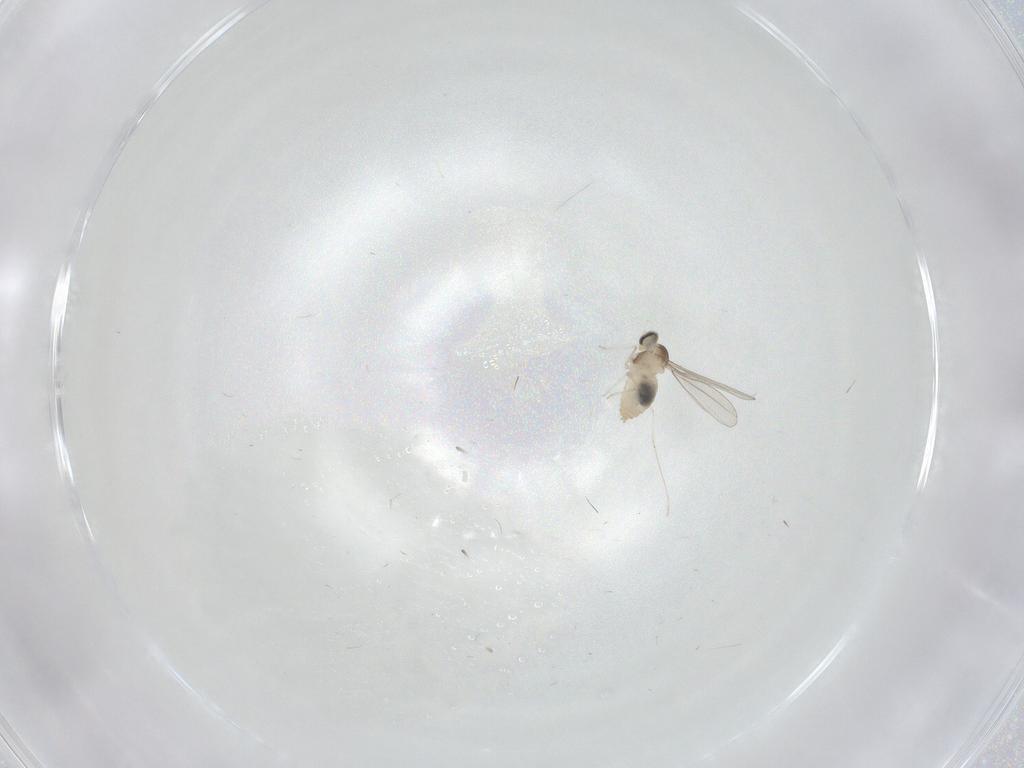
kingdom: Animalia
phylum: Arthropoda
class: Insecta
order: Diptera
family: Cecidomyiidae
